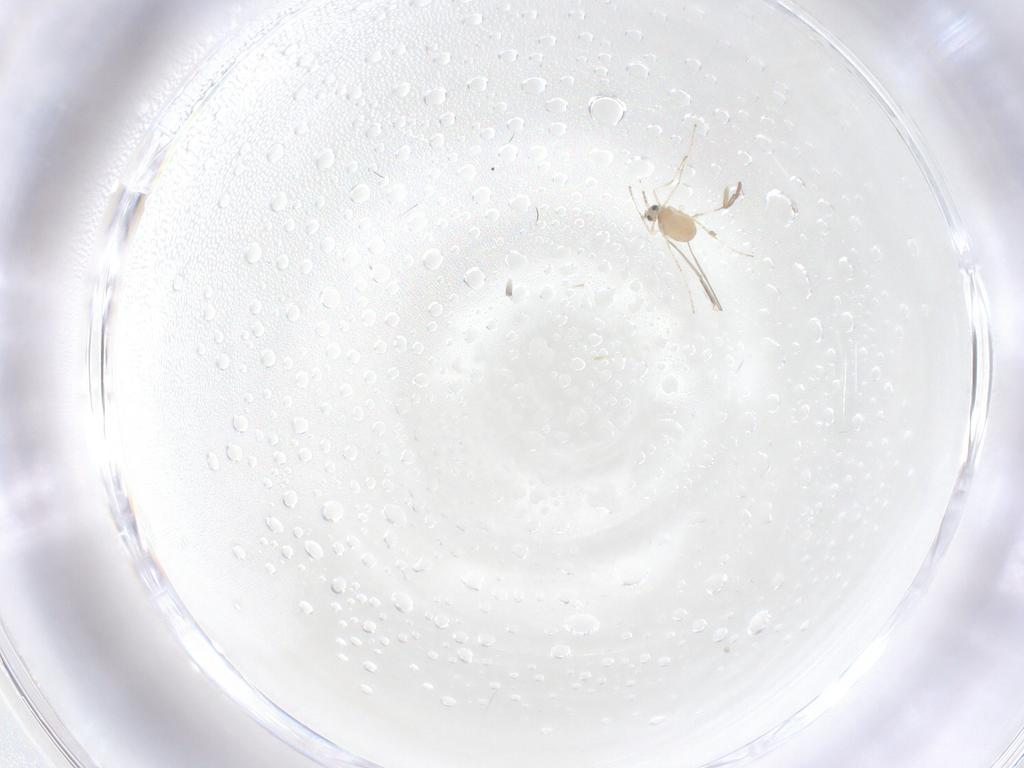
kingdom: Animalia
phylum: Arthropoda
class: Insecta
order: Diptera
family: Cecidomyiidae
